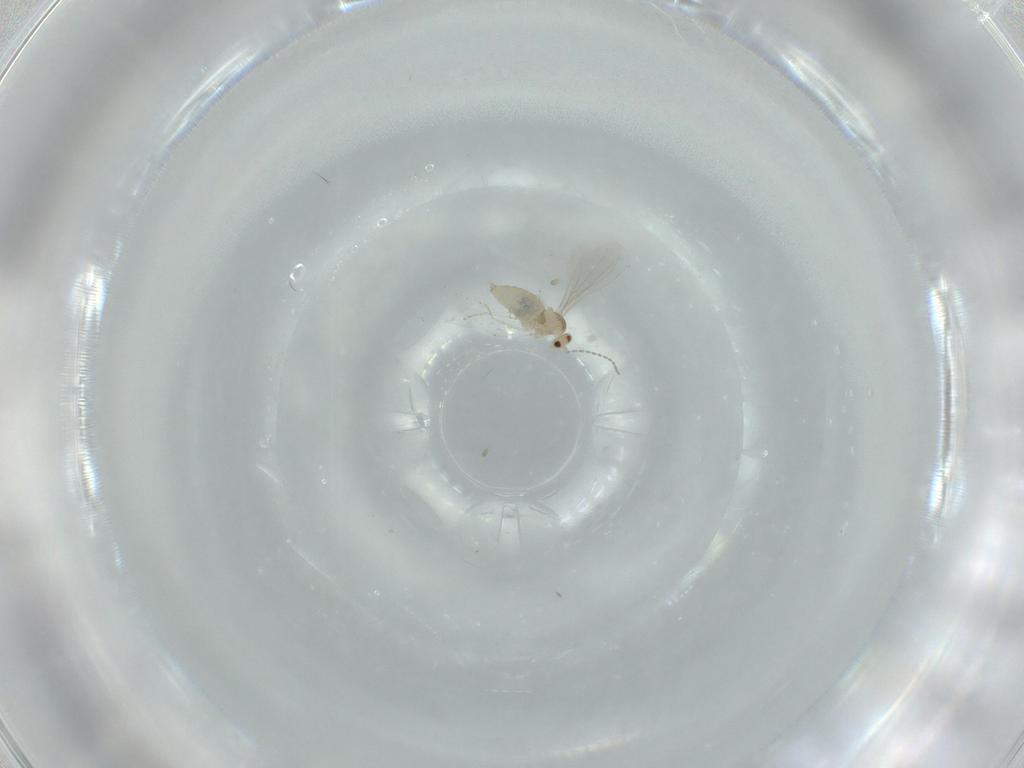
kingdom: Animalia
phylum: Arthropoda
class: Insecta
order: Diptera
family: Cecidomyiidae
